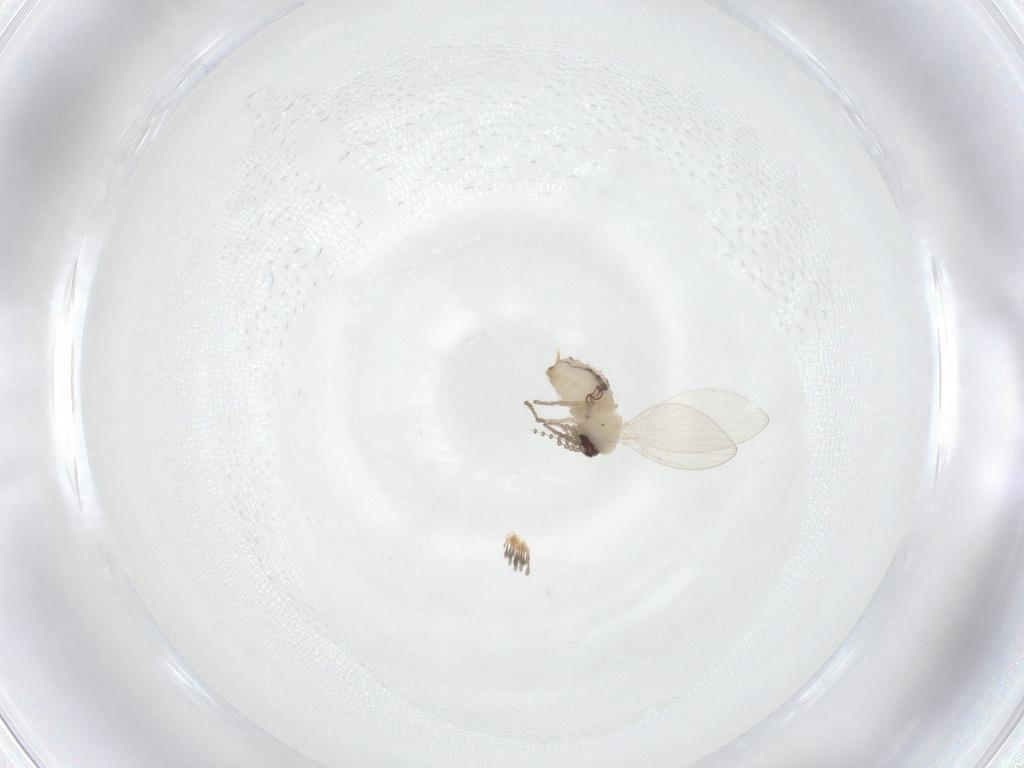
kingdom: Animalia
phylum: Arthropoda
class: Insecta
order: Diptera
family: Psychodidae
